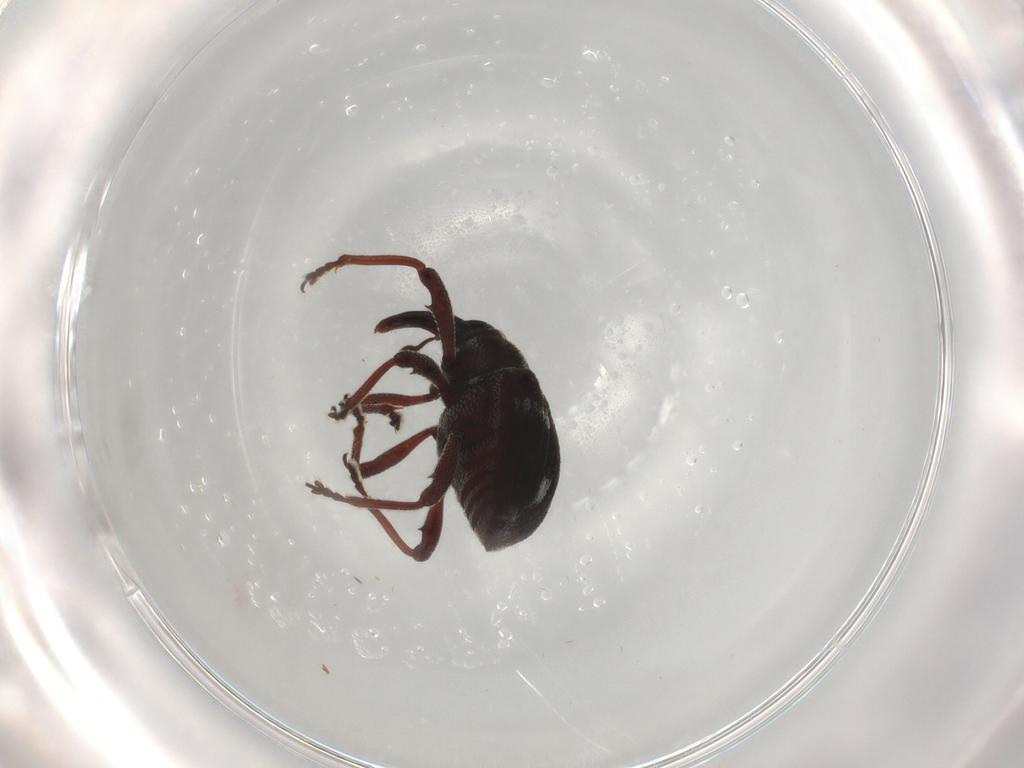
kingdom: Animalia
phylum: Arthropoda
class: Insecta
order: Coleoptera
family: Curculionidae
